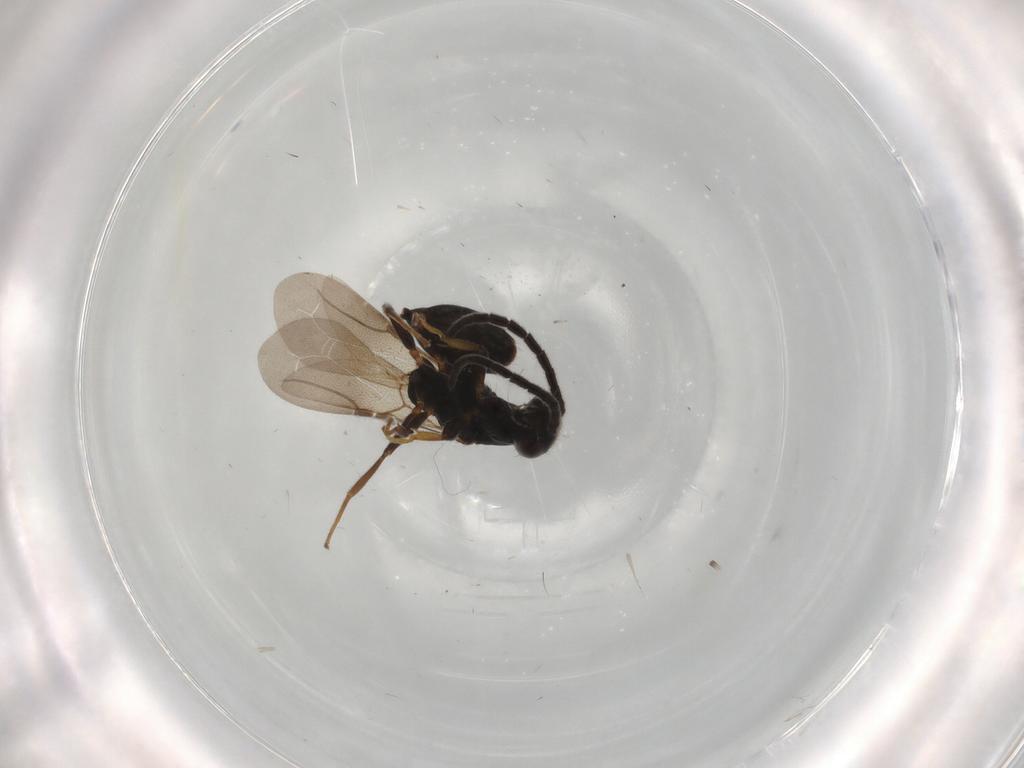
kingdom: Animalia
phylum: Arthropoda
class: Insecta
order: Hymenoptera
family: Bethylidae
